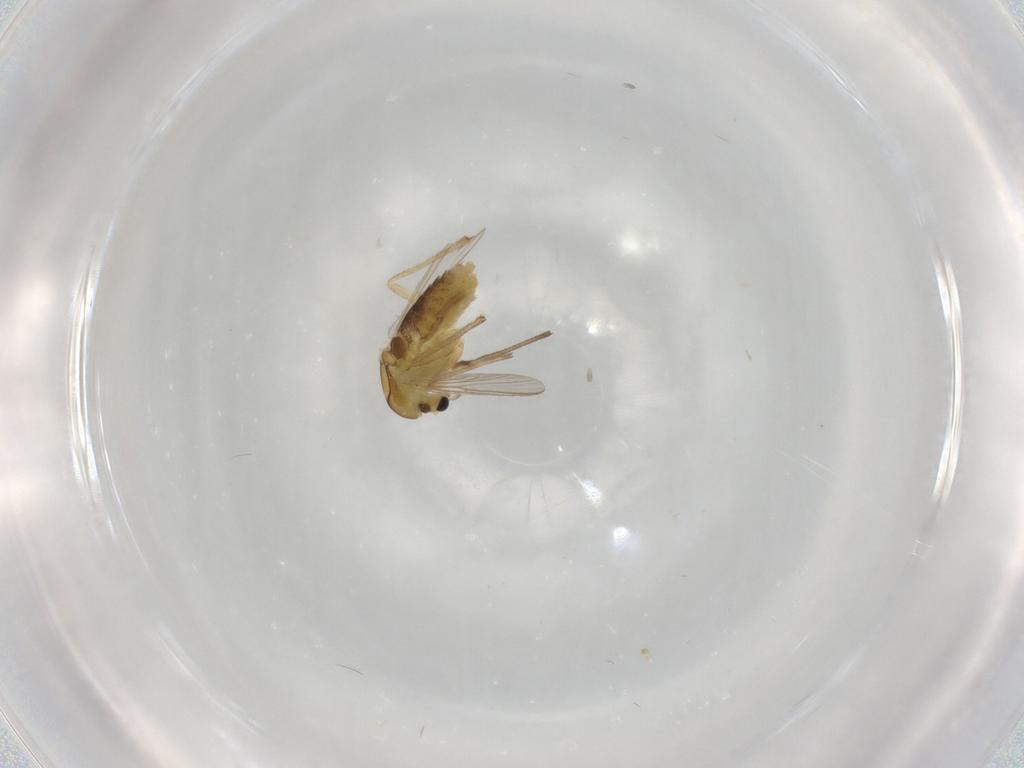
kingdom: Animalia
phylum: Arthropoda
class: Insecta
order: Diptera
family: Chironomidae
